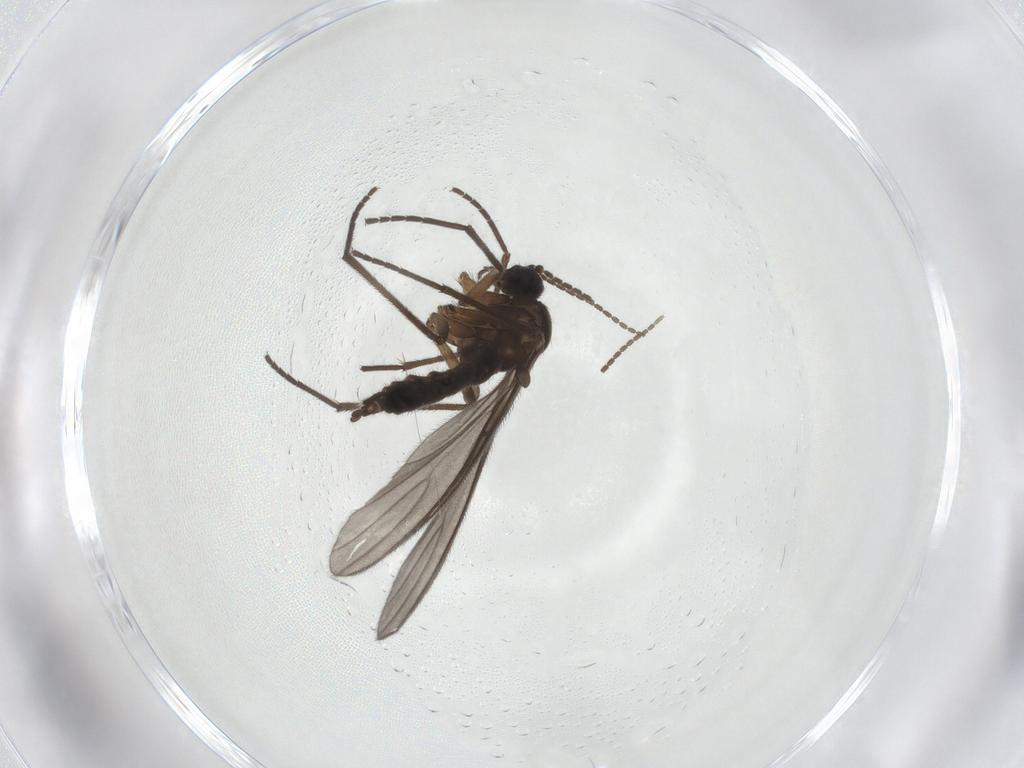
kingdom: Animalia
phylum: Arthropoda
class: Insecta
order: Diptera
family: Sciaridae
